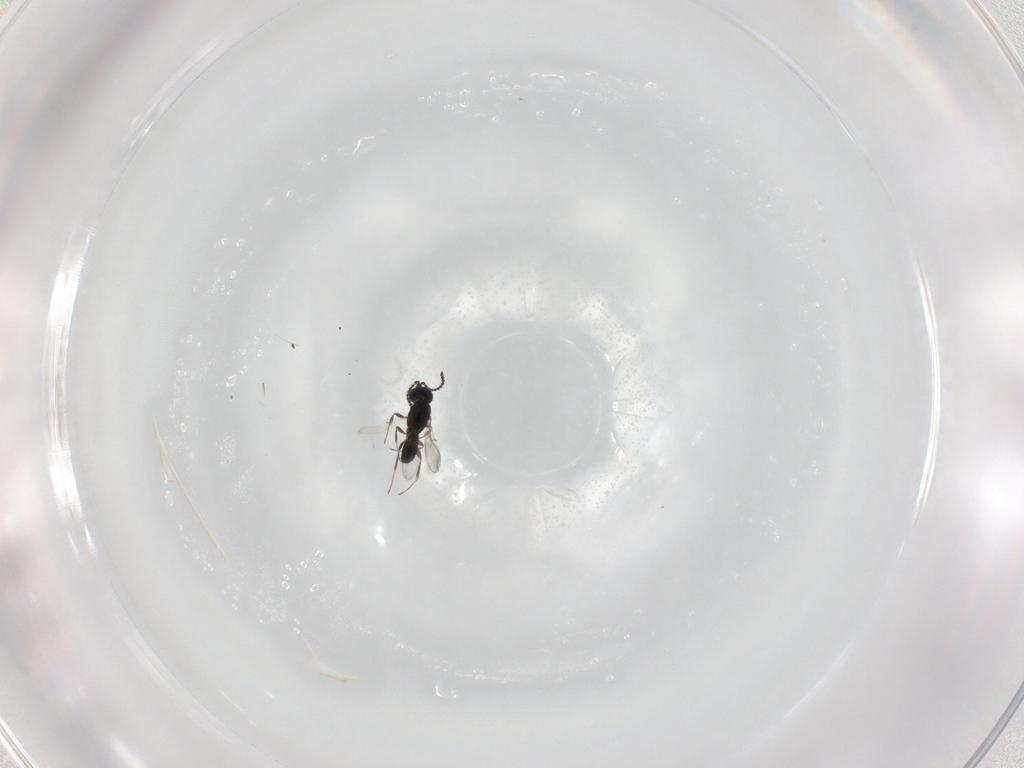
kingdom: Animalia
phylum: Arthropoda
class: Insecta
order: Hymenoptera
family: Scelionidae
